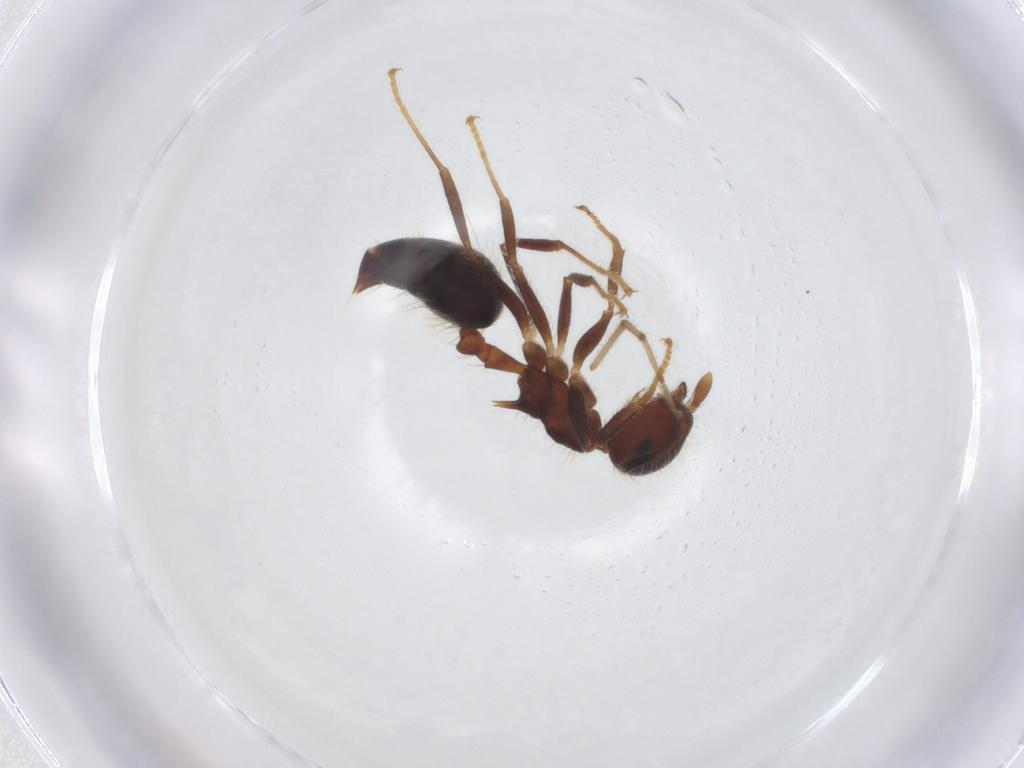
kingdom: Animalia
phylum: Arthropoda
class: Insecta
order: Hymenoptera
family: Formicidae
